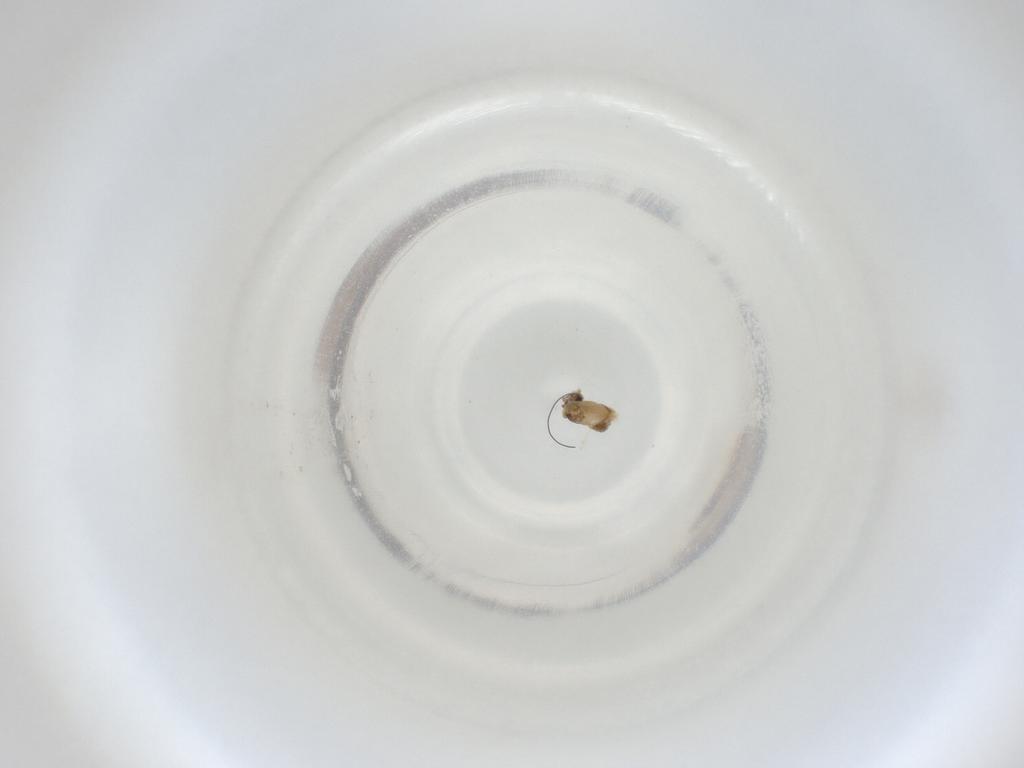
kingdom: Animalia
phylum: Arthropoda
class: Insecta
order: Diptera
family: Cecidomyiidae
